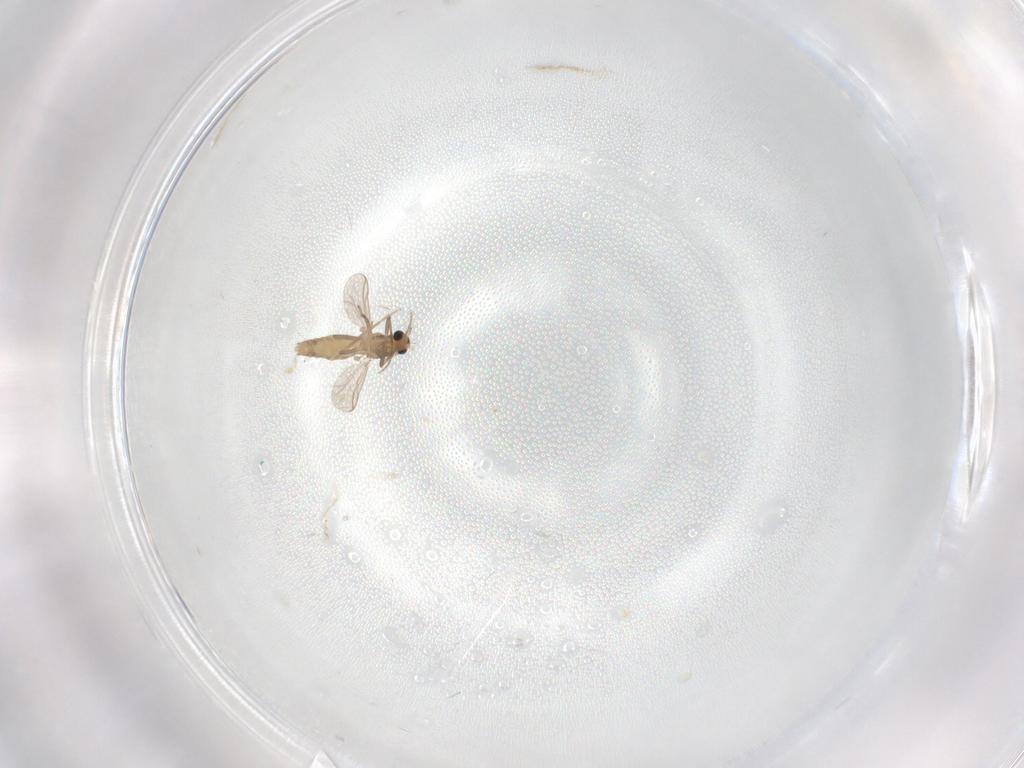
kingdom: Animalia
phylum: Arthropoda
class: Insecta
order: Diptera
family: Chironomidae
